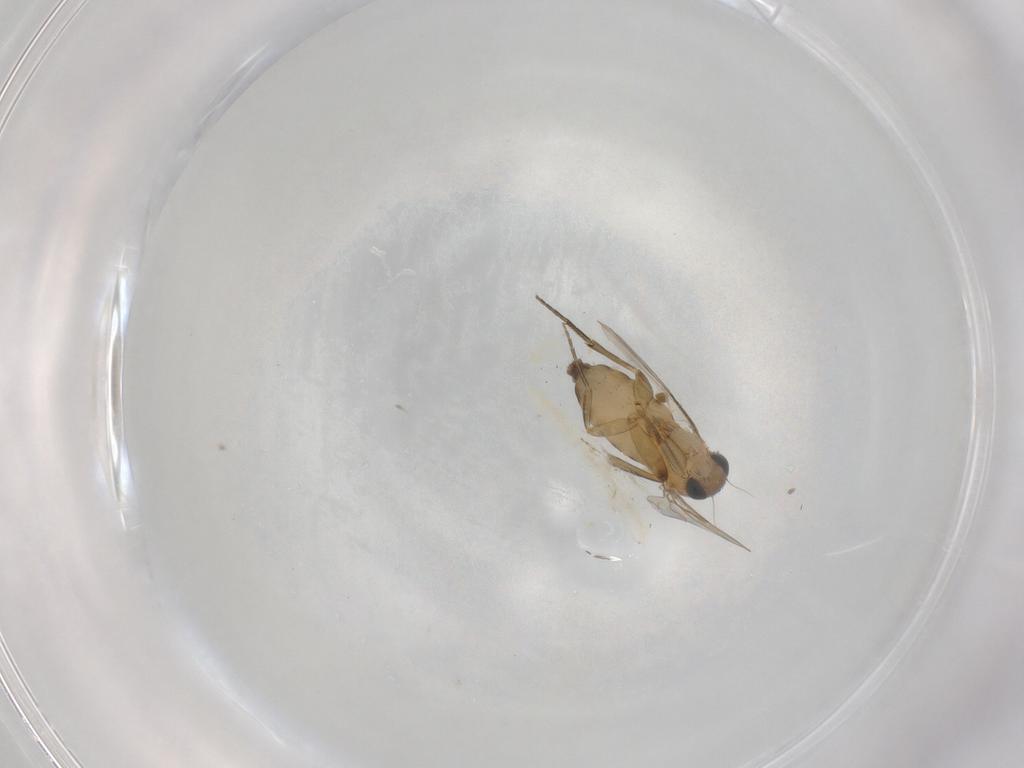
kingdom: Animalia
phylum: Arthropoda
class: Insecta
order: Diptera
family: Phoridae
